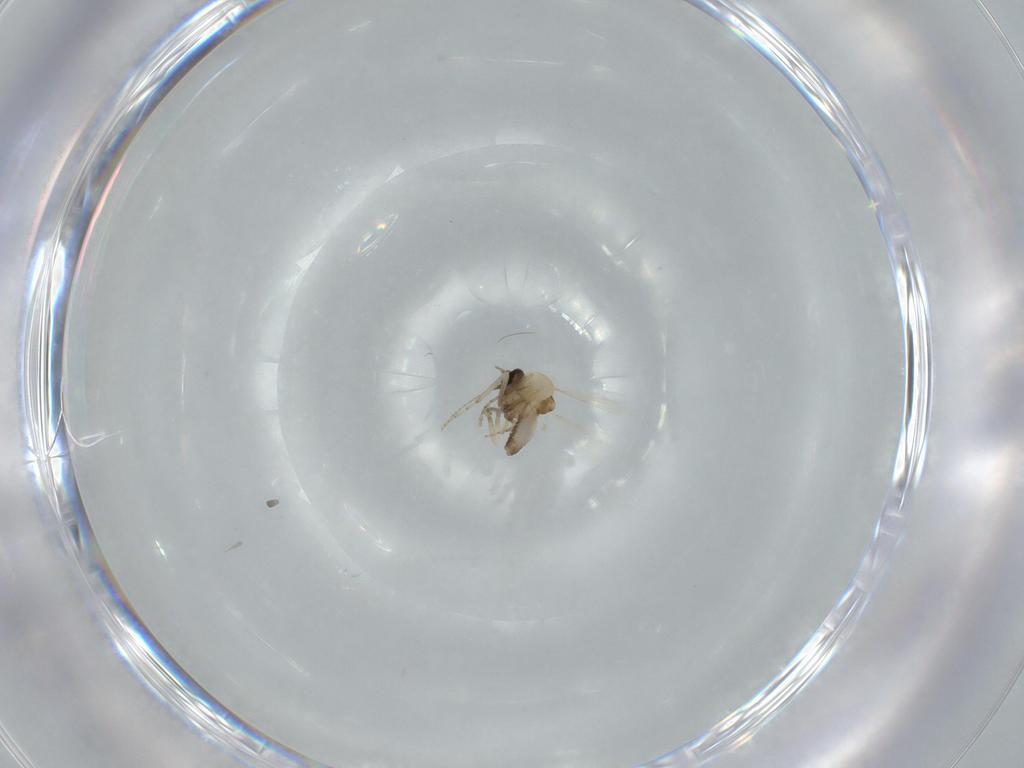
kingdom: Animalia
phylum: Arthropoda
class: Insecta
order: Diptera
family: Ceratopogonidae
